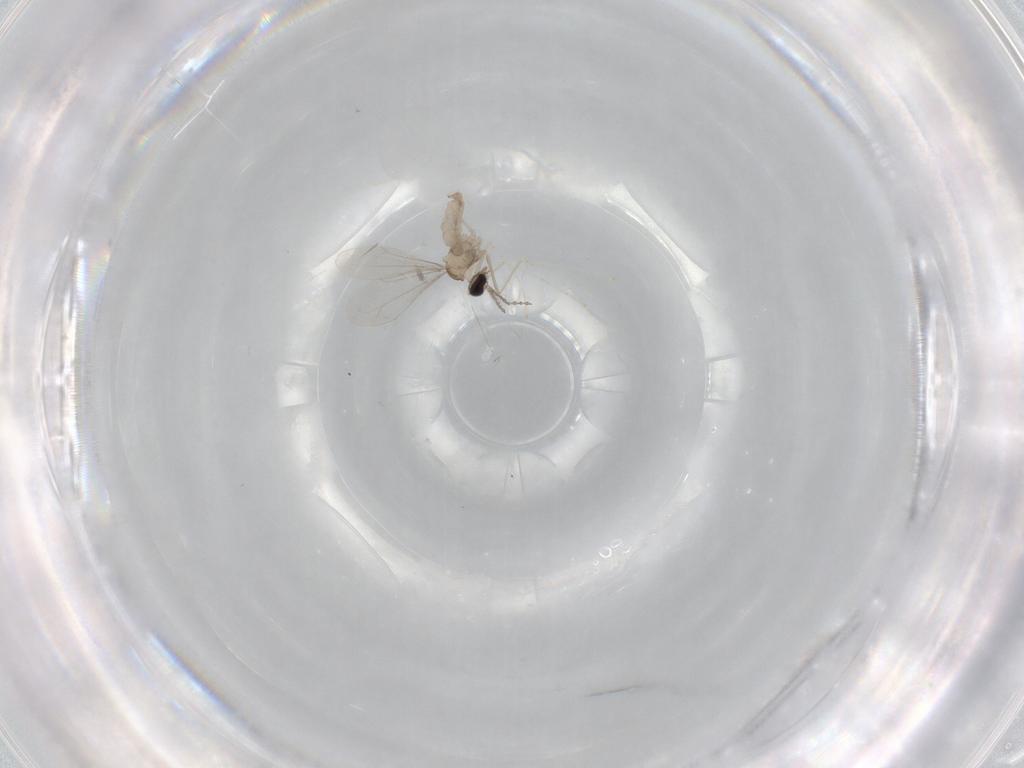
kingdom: Animalia
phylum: Arthropoda
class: Insecta
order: Diptera
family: Cecidomyiidae
